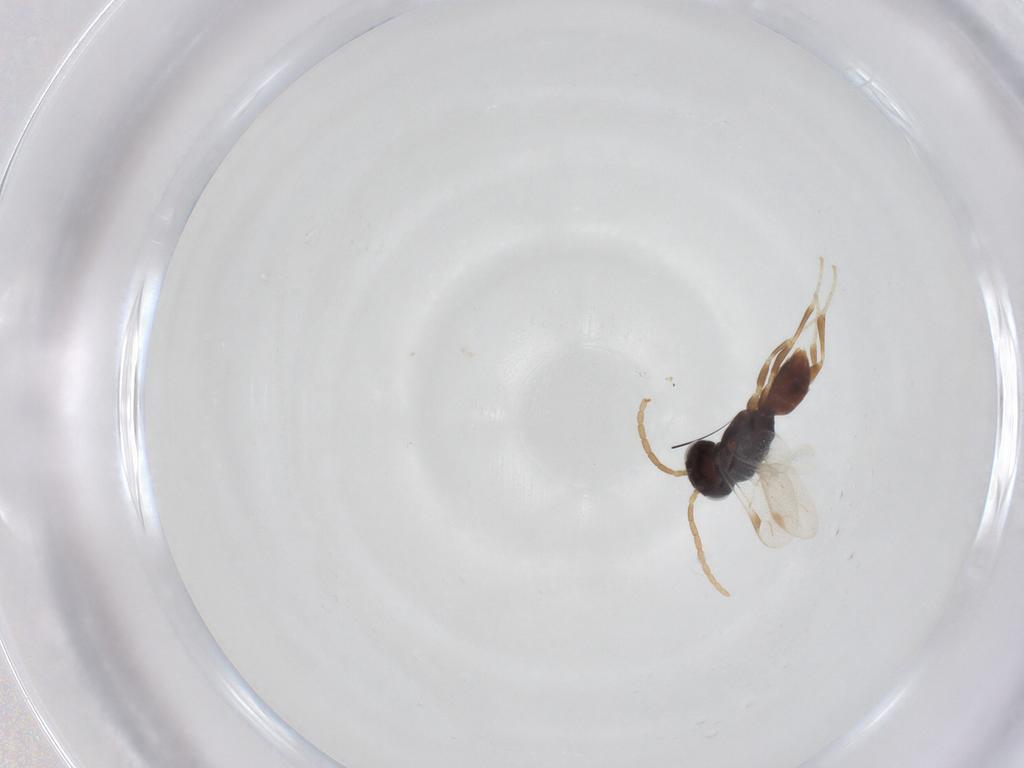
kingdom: Animalia
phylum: Arthropoda
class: Insecta
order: Hymenoptera
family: Dryinidae
